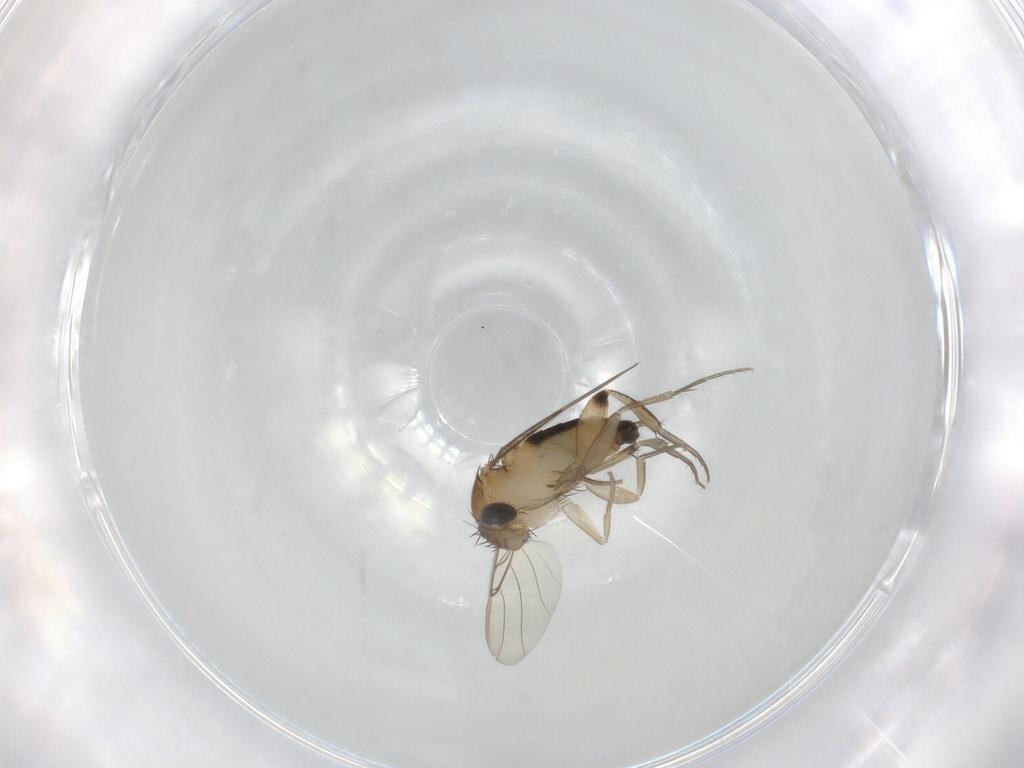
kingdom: Animalia
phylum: Arthropoda
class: Insecta
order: Diptera
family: Phoridae
